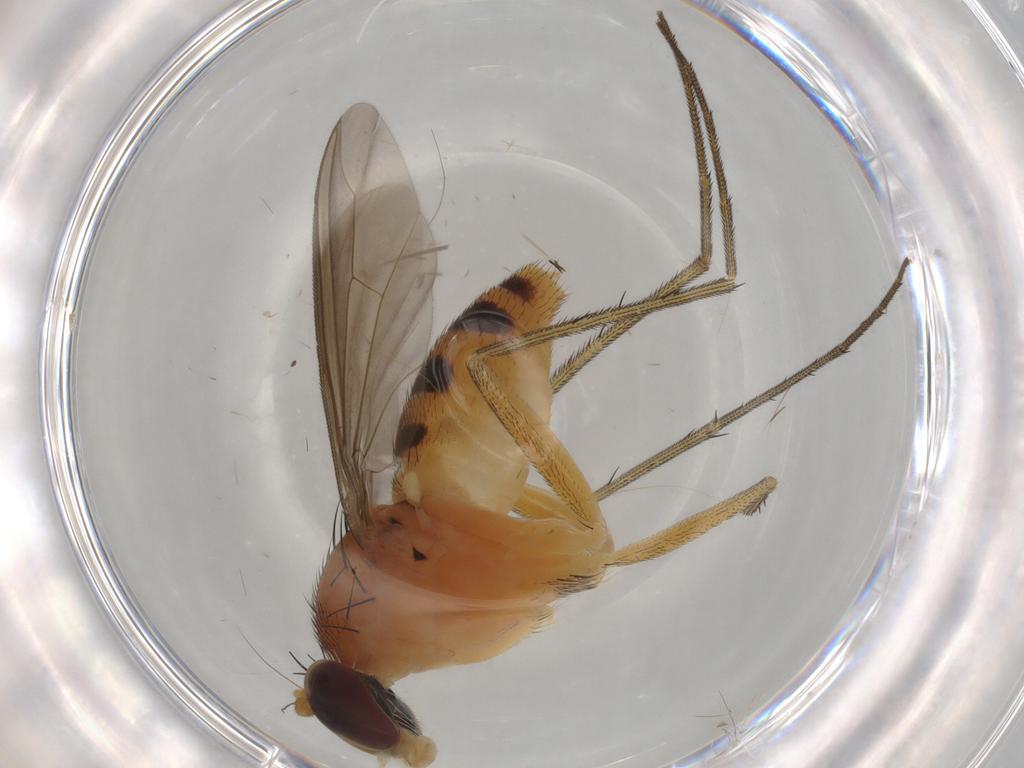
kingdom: Animalia
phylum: Arthropoda
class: Insecta
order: Diptera
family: Dolichopodidae
